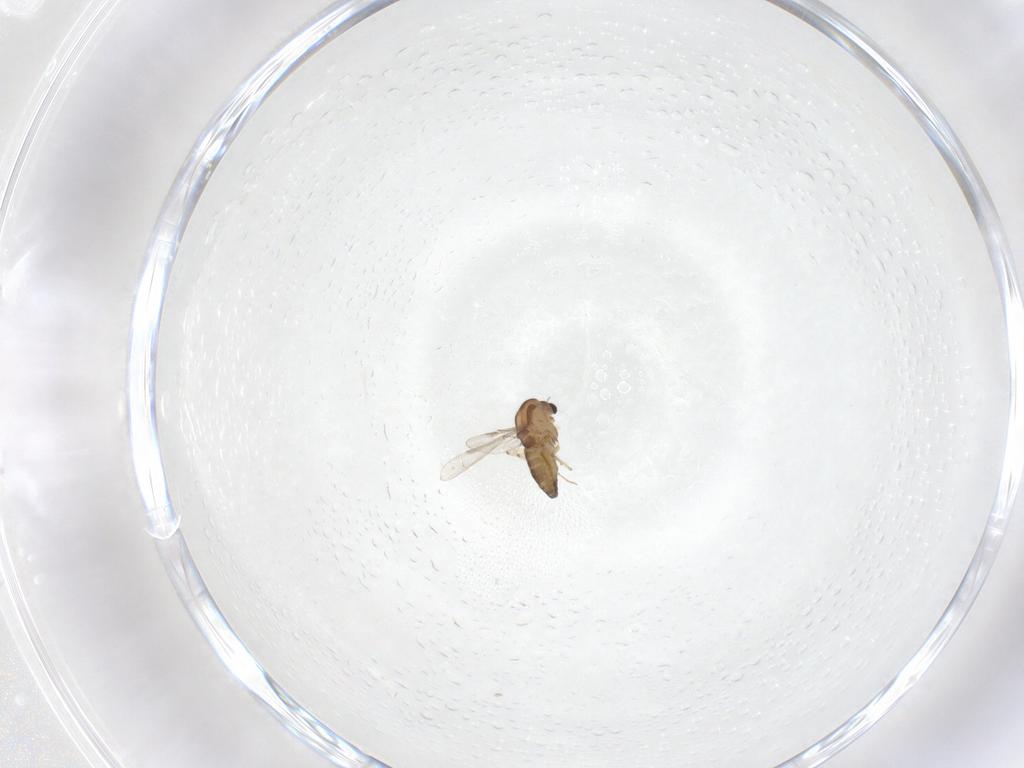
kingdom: Animalia
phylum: Arthropoda
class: Insecta
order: Diptera
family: Chironomidae
